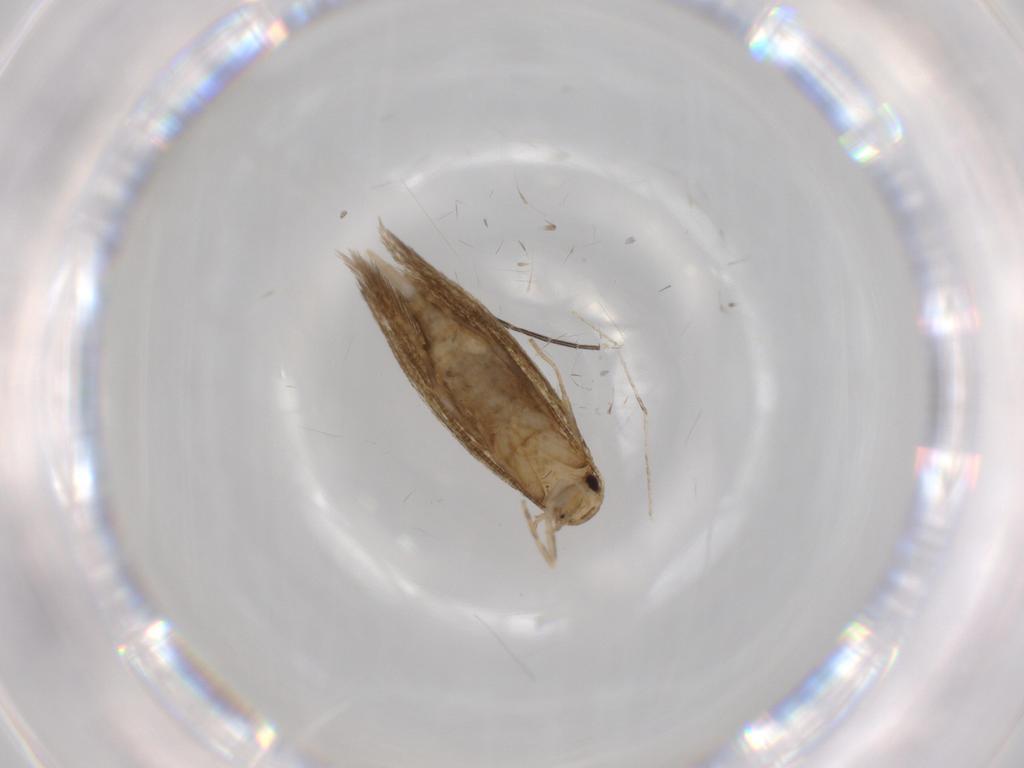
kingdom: Animalia
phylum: Arthropoda
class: Insecta
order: Lepidoptera
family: Tineidae
